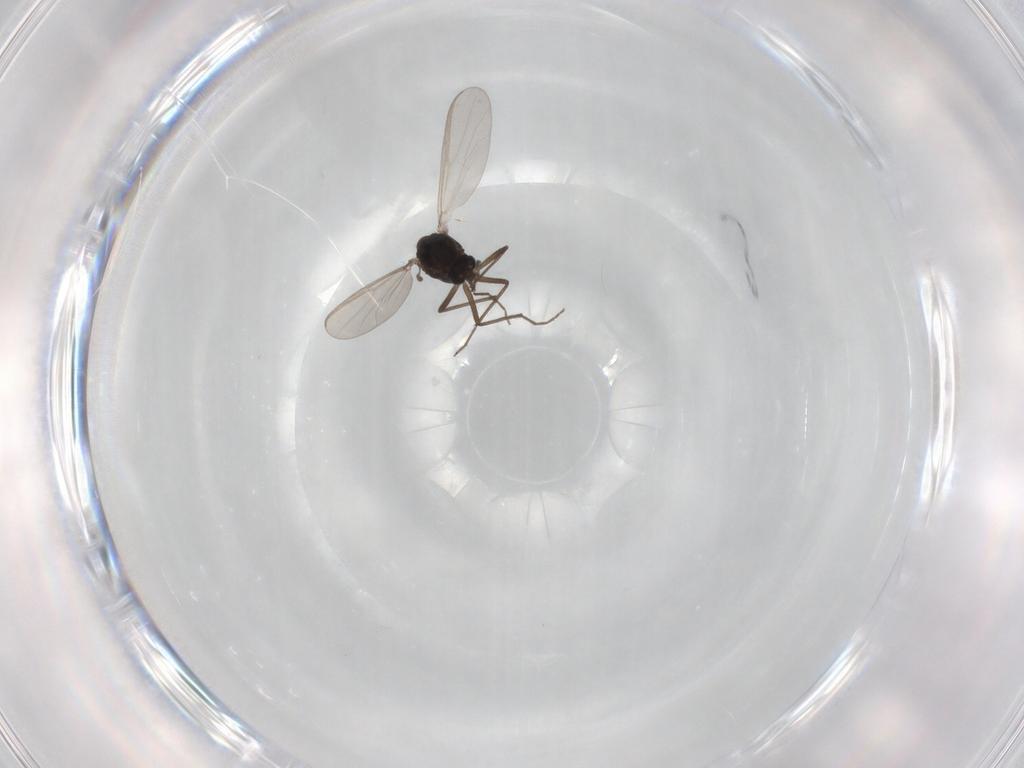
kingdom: Animalia
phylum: Arthropoda
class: Insecta
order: Diptera
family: Chironomidae
